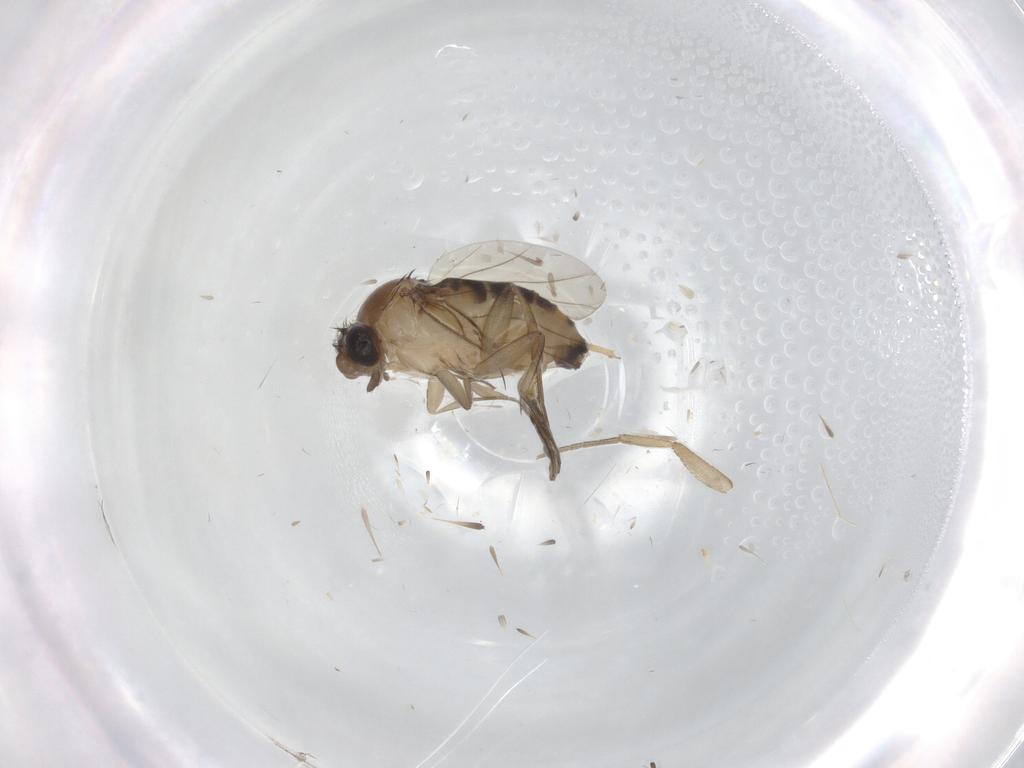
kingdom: Animalia
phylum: Arthropoda
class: Insecta
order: Diptera
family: Phoridae
